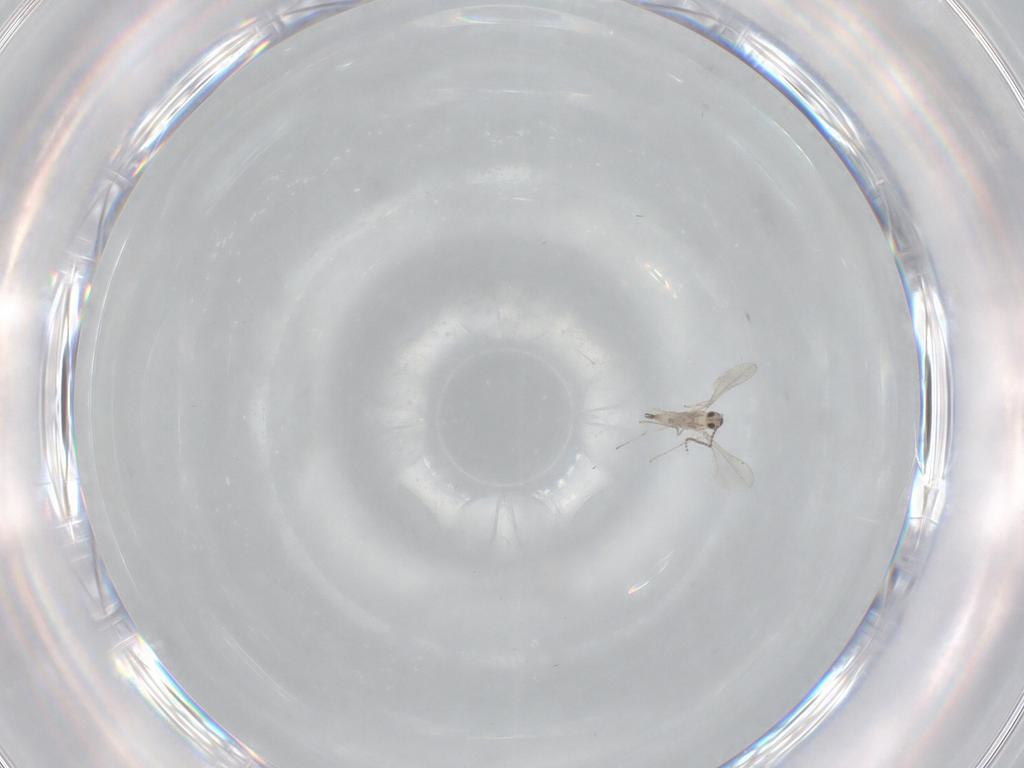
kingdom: Animalia
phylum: Arthropoda
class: Insecta
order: Diptera
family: Cecidomyiidae
